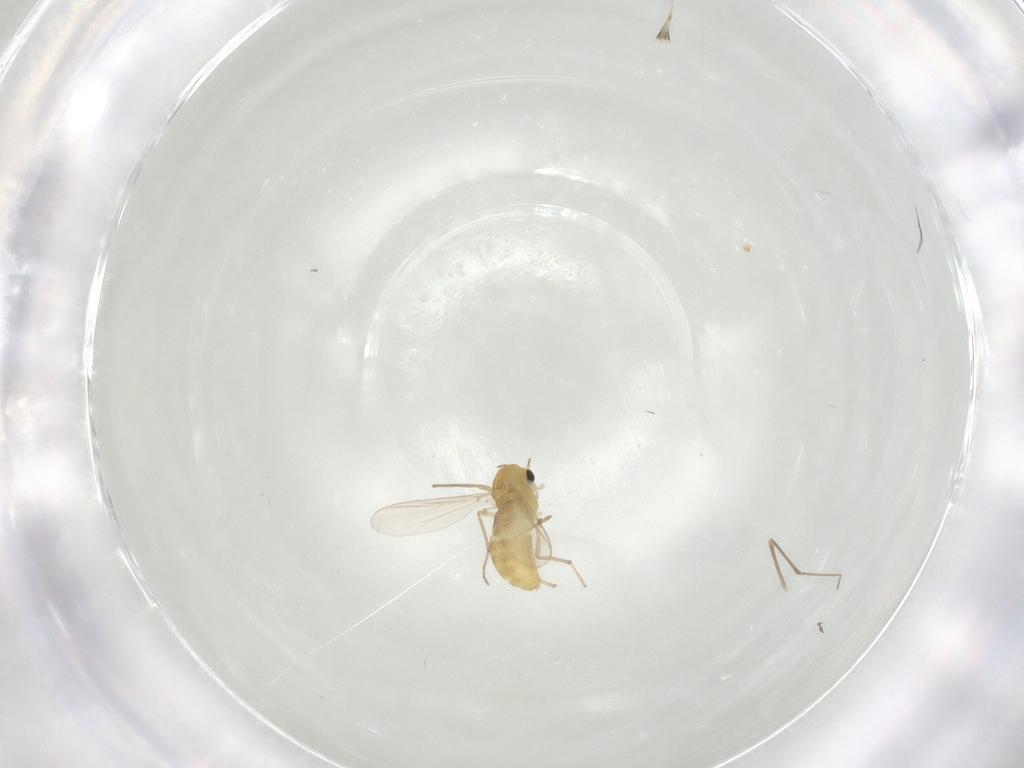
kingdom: Animalia
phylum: Arthropoda
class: Insecta
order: Diptera
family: Chironomidae
